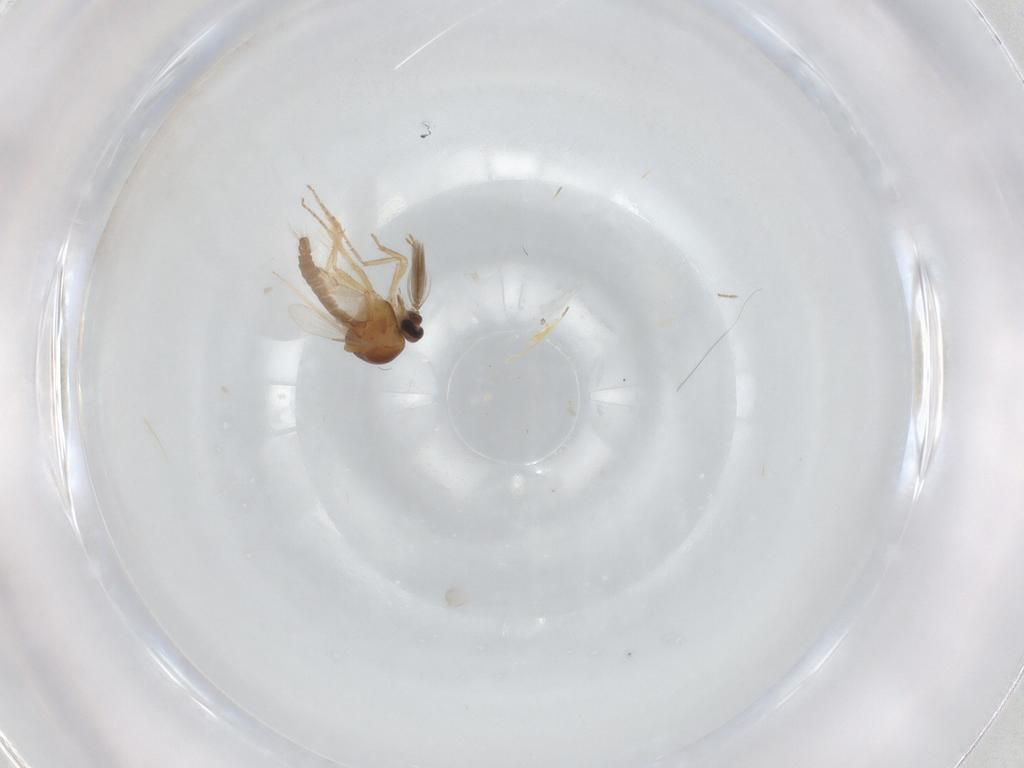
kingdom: Animalia
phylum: Arthropoda
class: Insecta
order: Diptera
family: Ceratopogonidae
